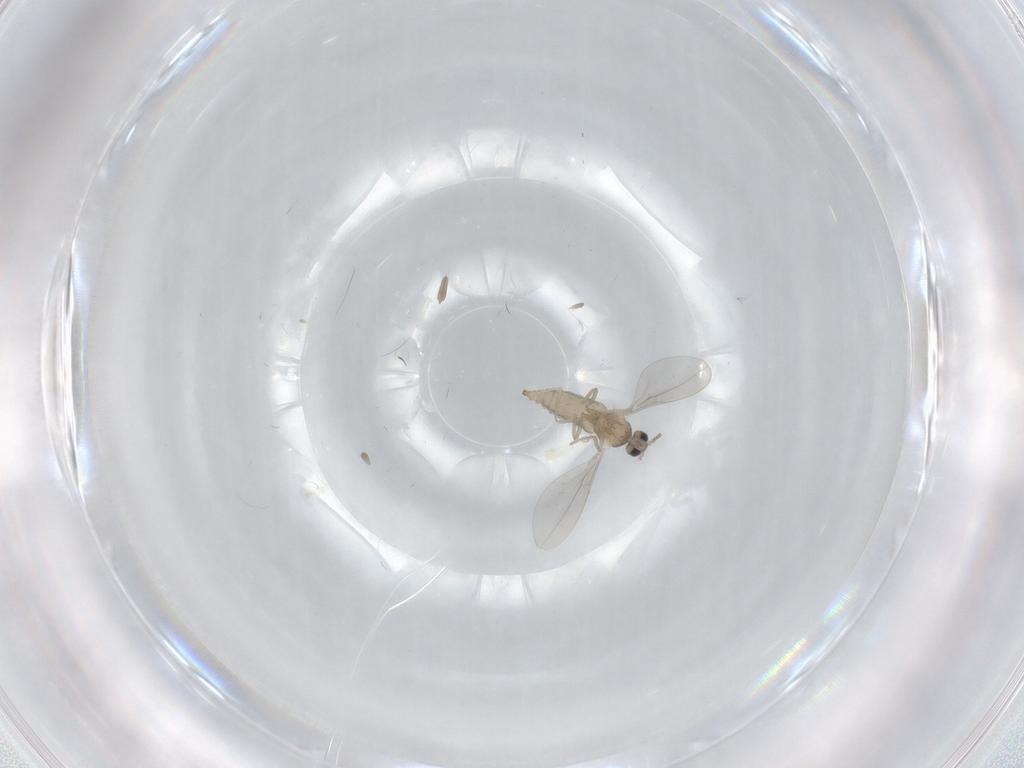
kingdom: Animalia
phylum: Arthropoda
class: Insecta
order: Diptera
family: Cecidomyiidae
